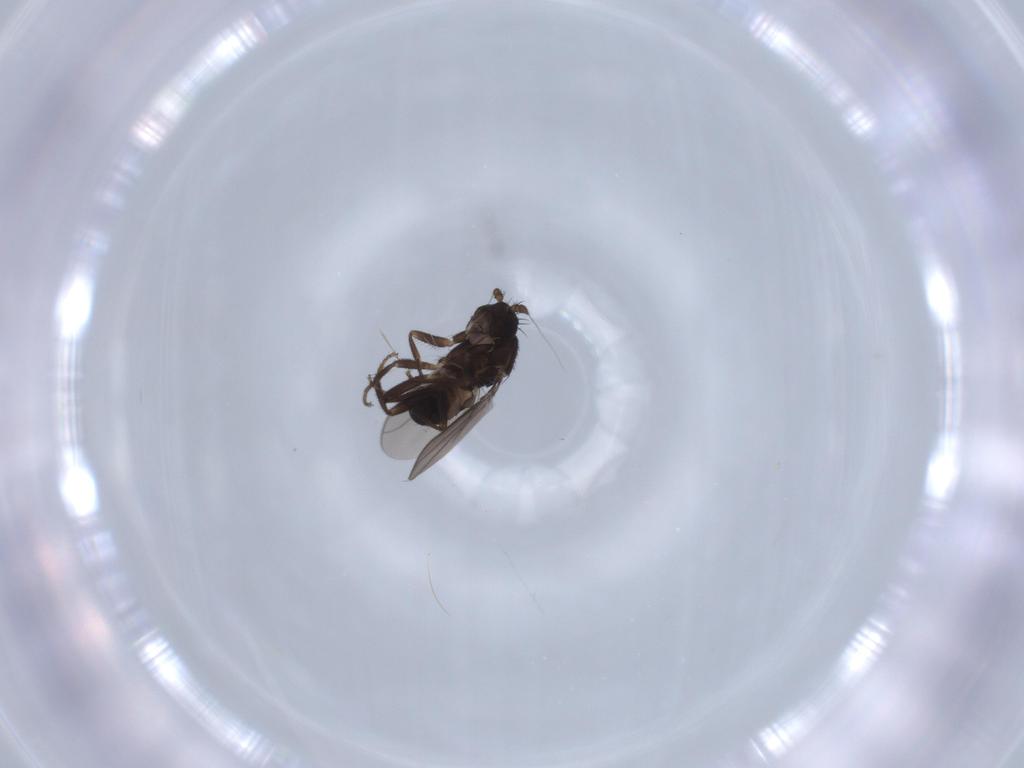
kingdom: Animalia
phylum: Arthropoda
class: Insecta
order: Diptera
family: Sphaeroceridae
